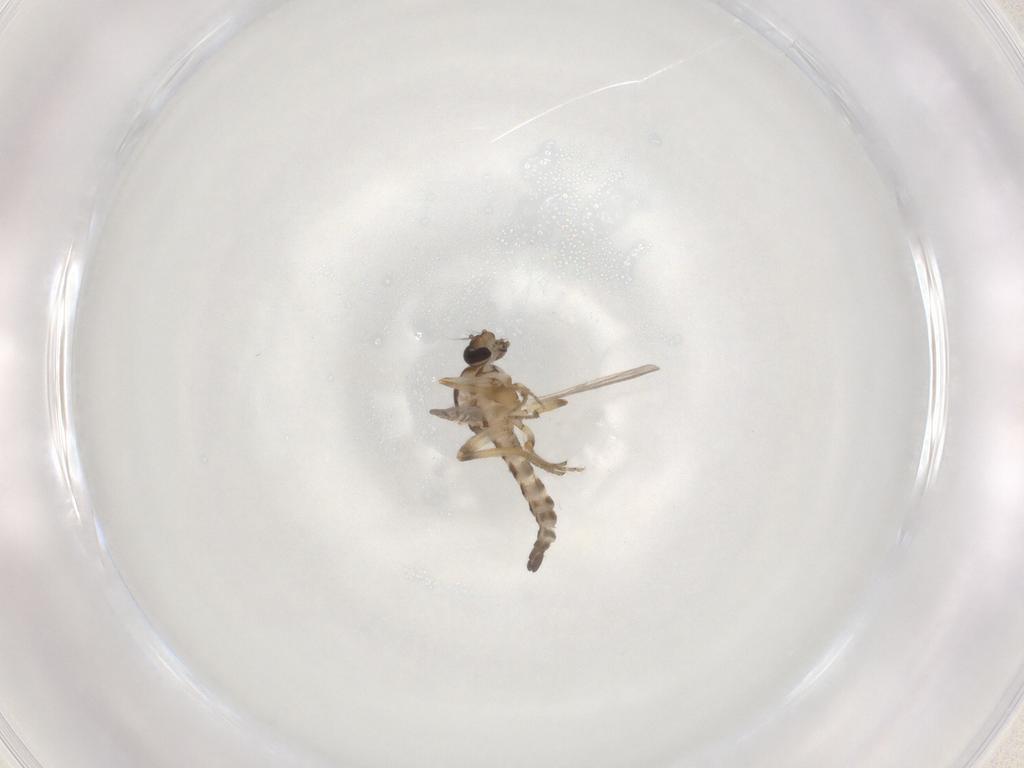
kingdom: Animalia
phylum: Arthropoda
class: Insecta
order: Diptera
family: Ceratopogonidae
